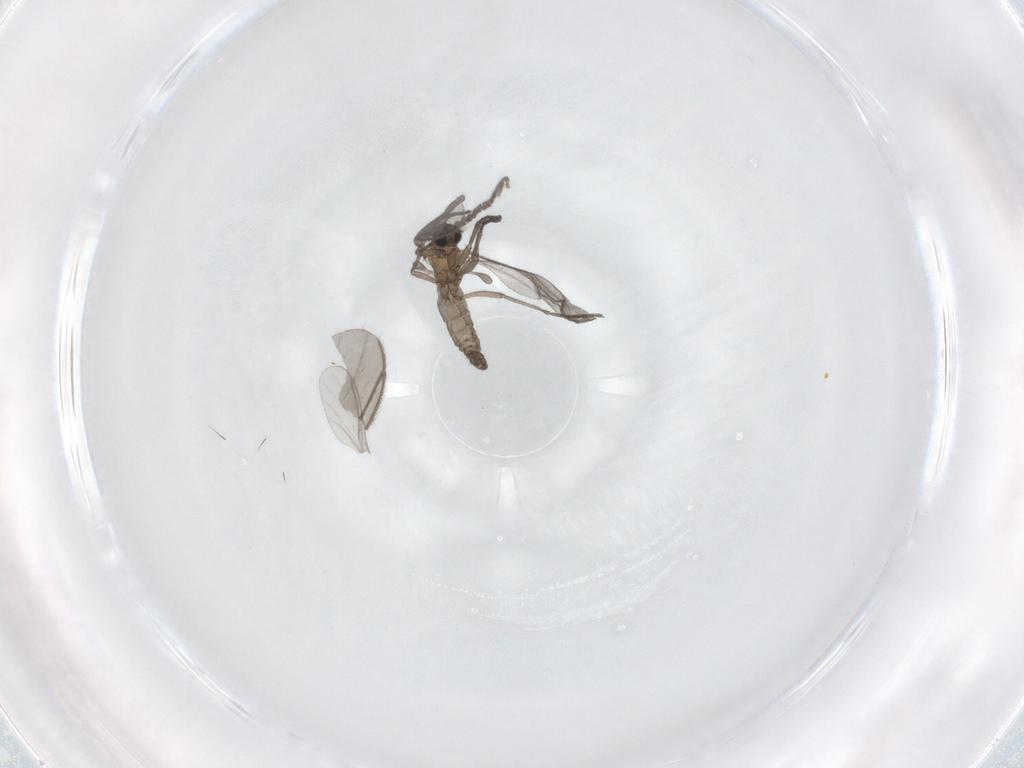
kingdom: Animalia
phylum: Arthropoda
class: Insecta
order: Diptera
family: Sciaridae
